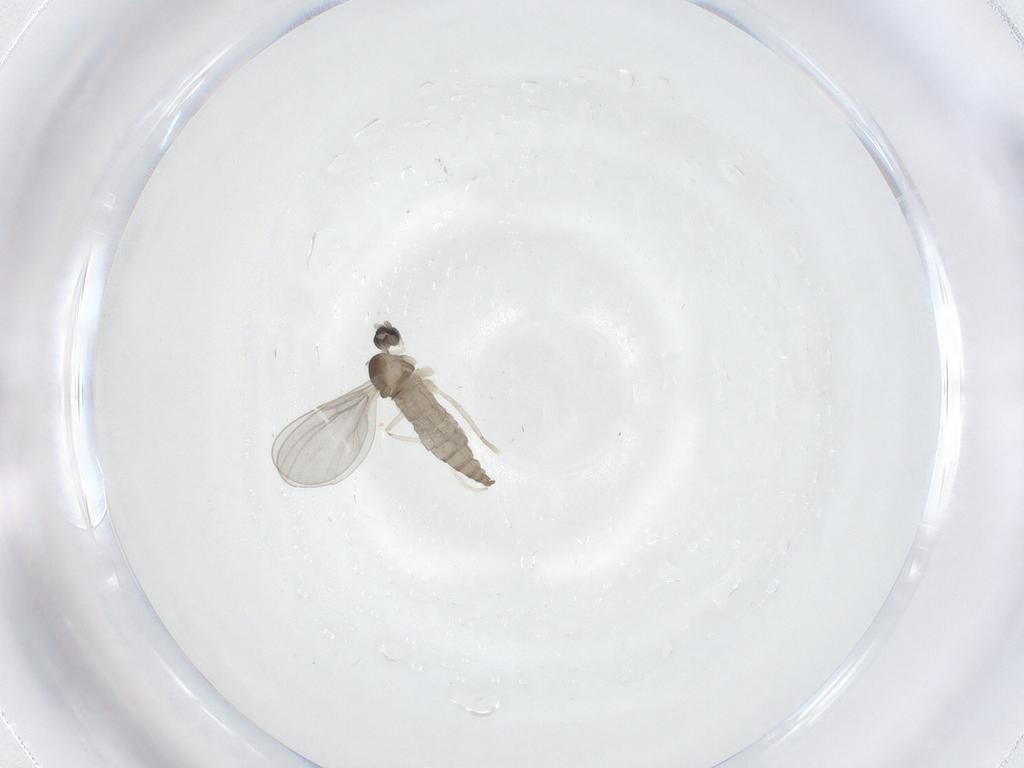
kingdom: Animalia
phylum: Arthropoda
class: Insecta
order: Diptera
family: Cecidomyiidae
